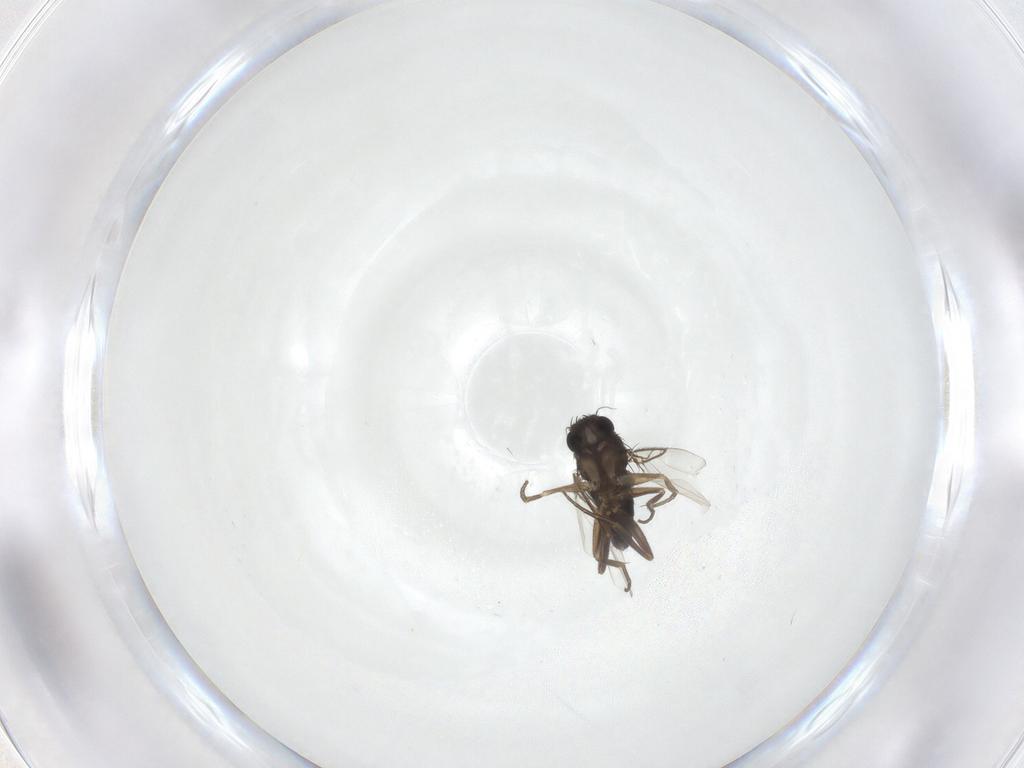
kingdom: Animalia
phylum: Arthropoda
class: Insecta
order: Diptera
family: Phoridae
